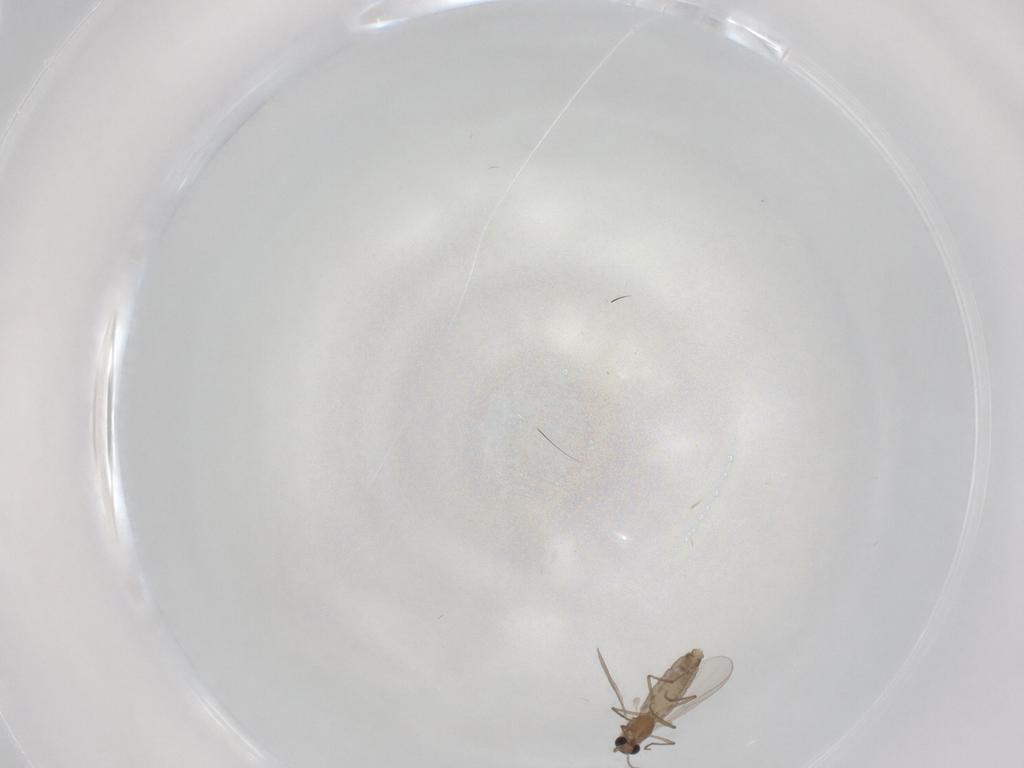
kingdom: Animalia
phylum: Arthropoda
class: Insecta
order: Diptera
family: Chironomidae
